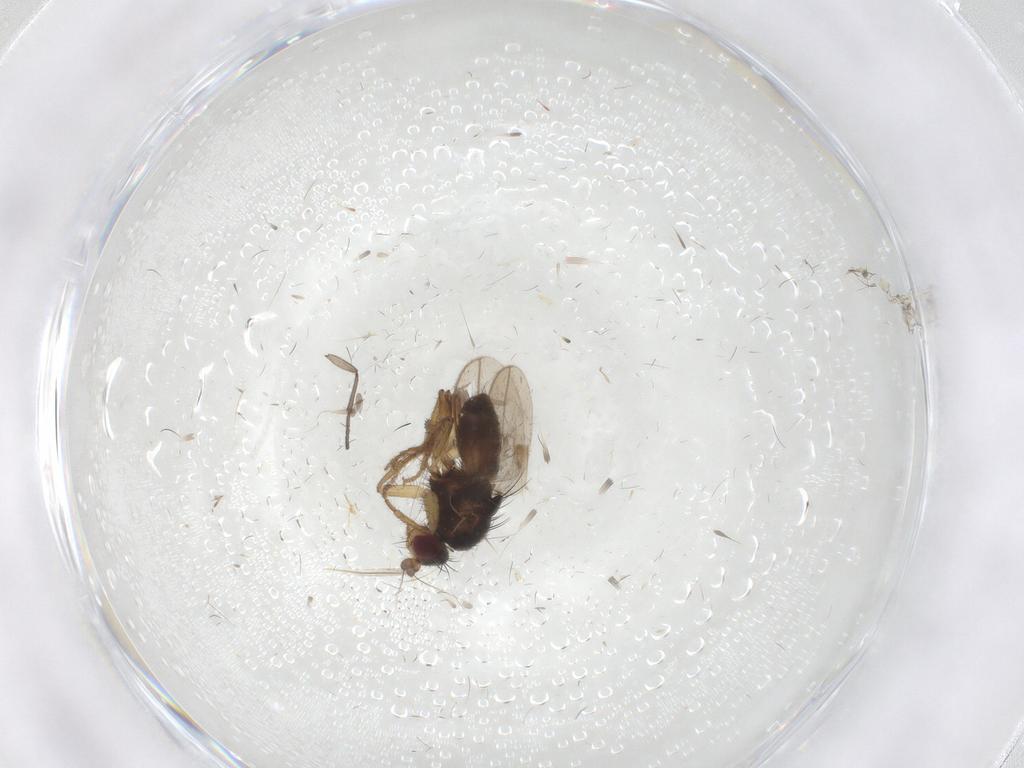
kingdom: Animalia
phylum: Arthropoda
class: Insecta
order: Diptera
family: Sphaeroceridae
